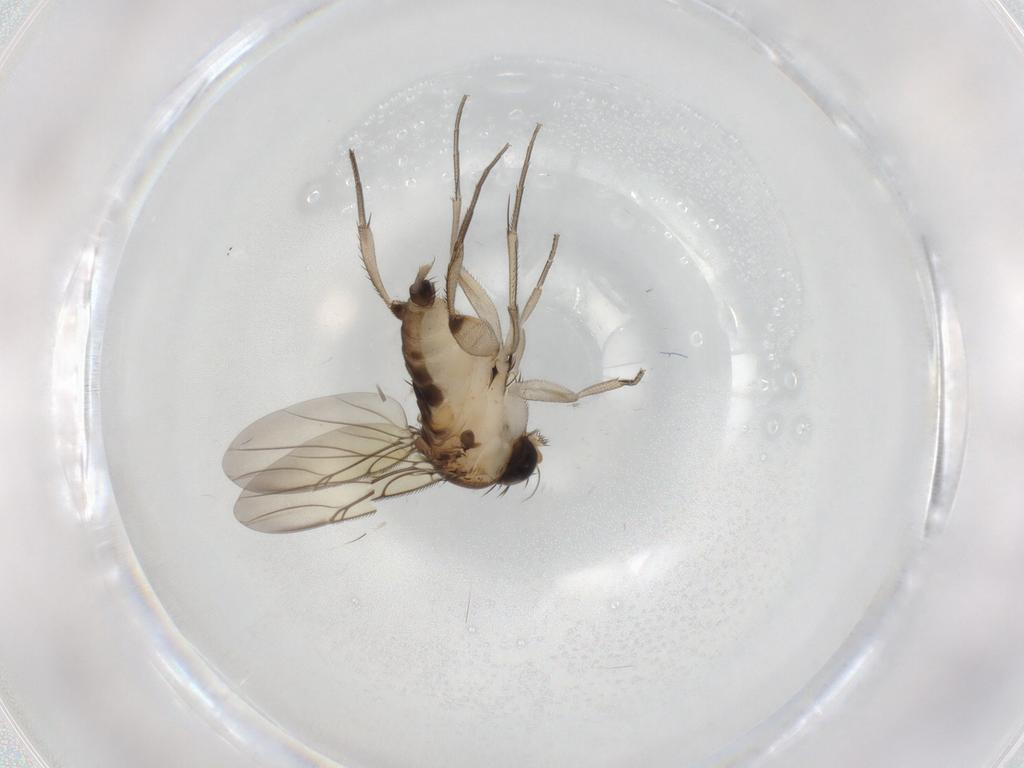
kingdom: Animalia
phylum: Arthropoda
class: Insecta
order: Diptera
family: Phoridae
